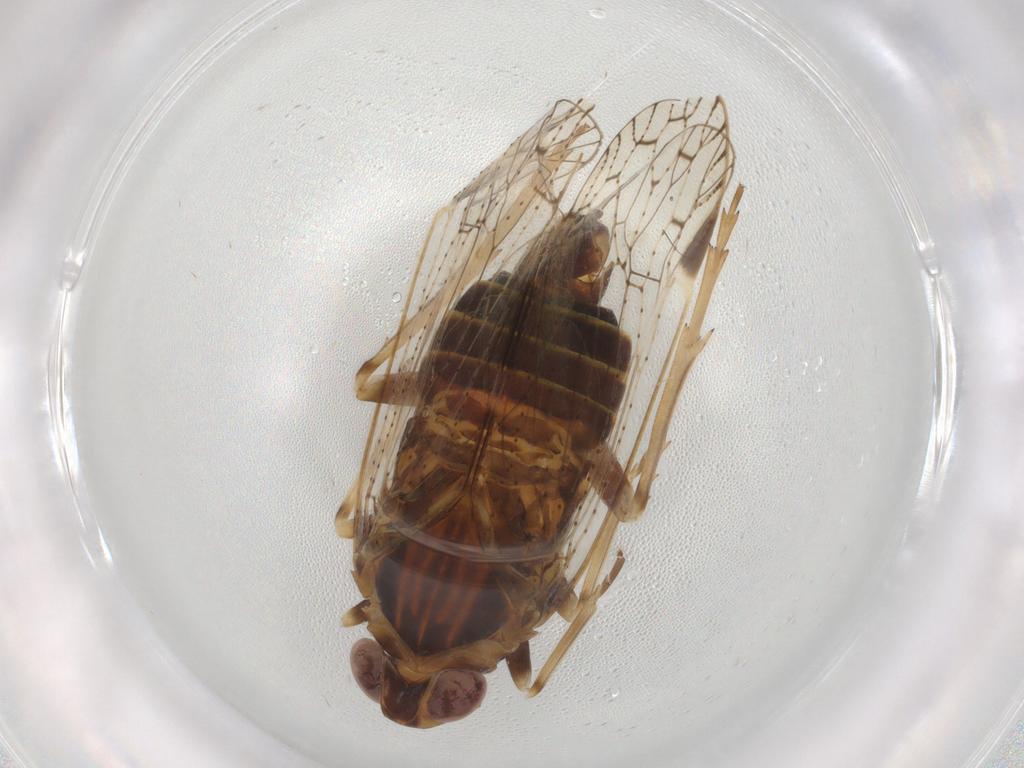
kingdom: Animalia
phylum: Arthropoda
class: Insecta
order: Hemiptera
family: Cixiidae
